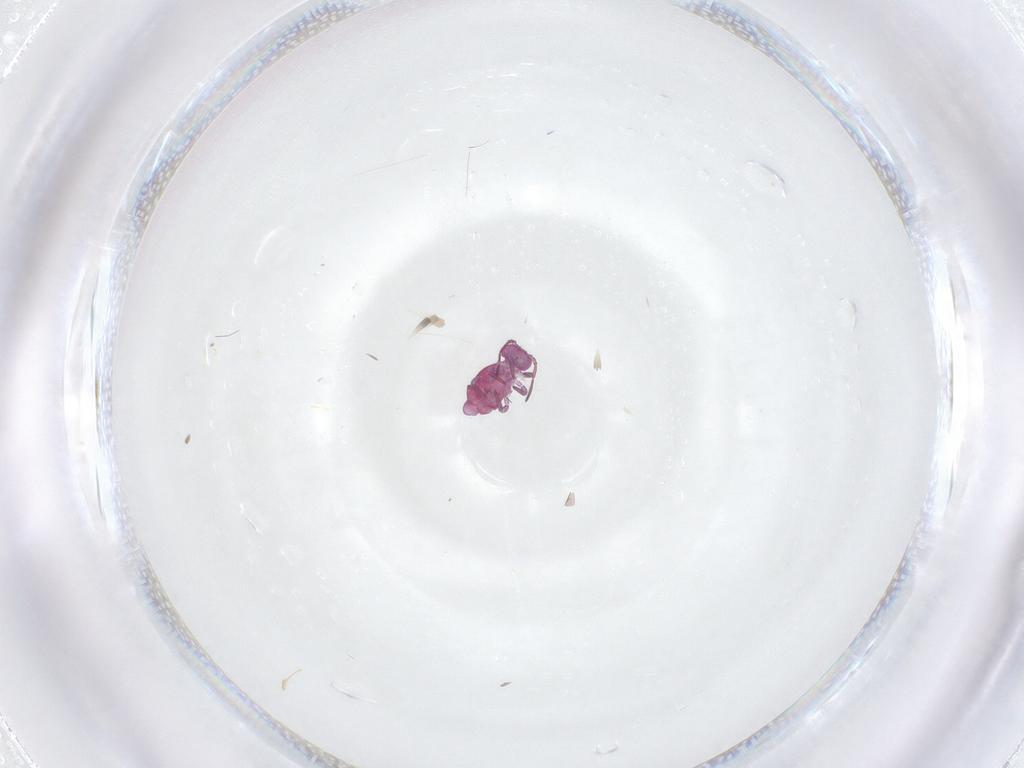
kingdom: Animalia
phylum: Arthropoda
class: Collembola
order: Symphypleona
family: Sminthuridae
